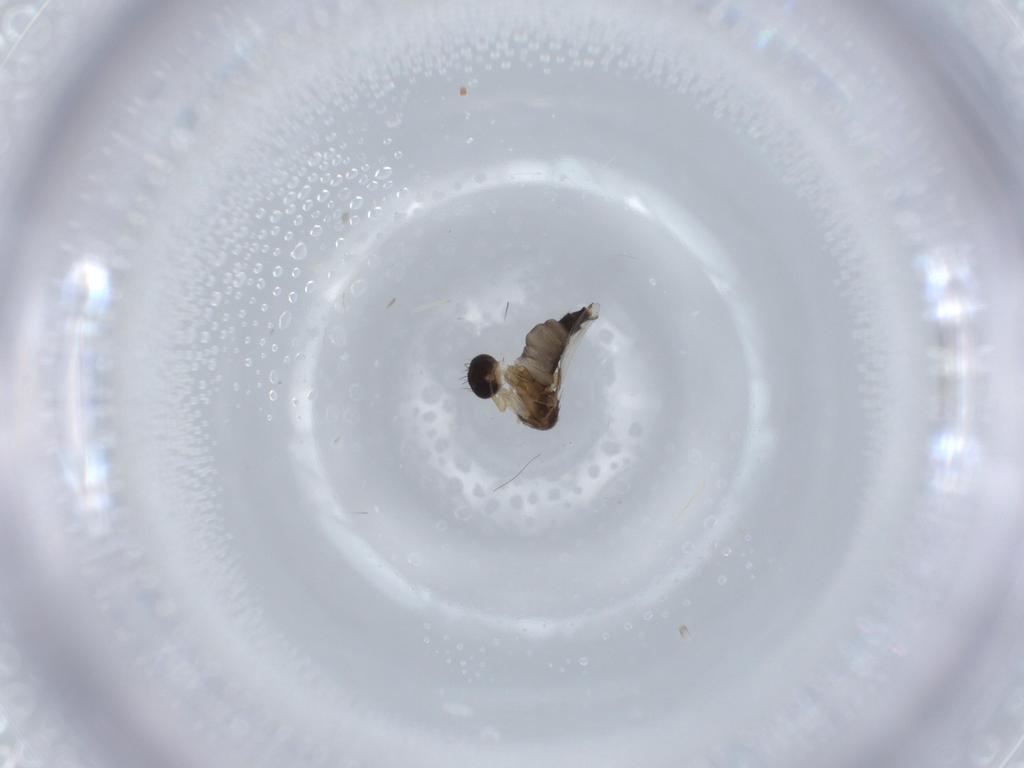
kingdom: Animalia
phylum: Arthropoda
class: Insecta
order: Diptera
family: Phoridae
